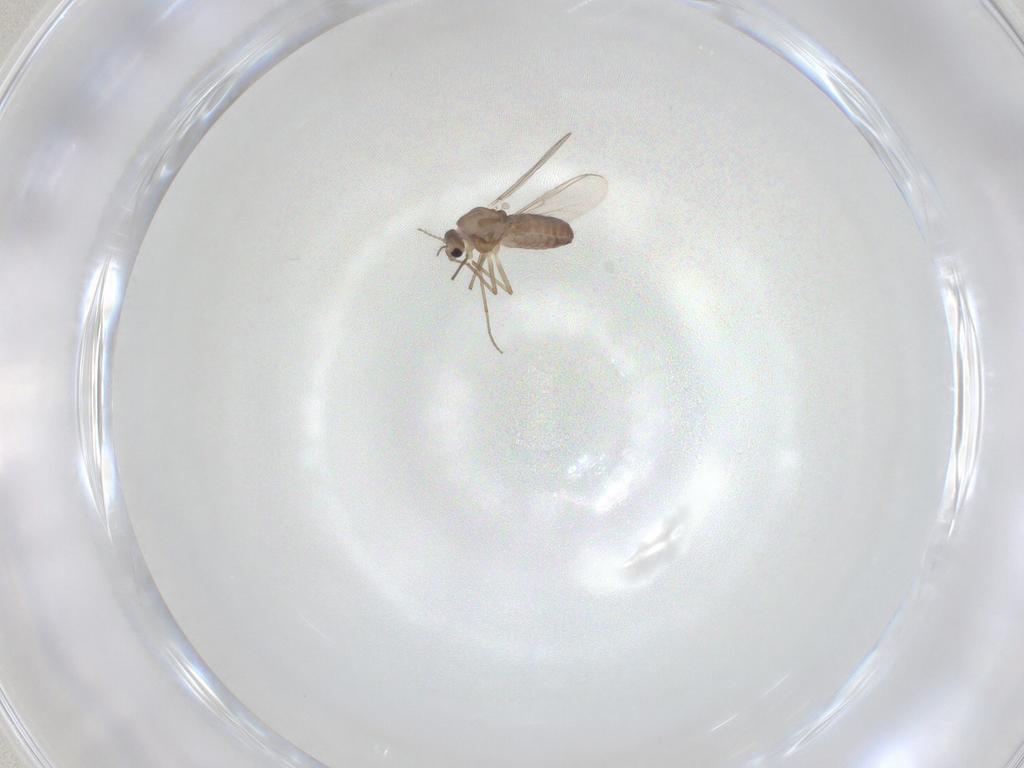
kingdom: Animalia
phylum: Arthropoda
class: Insecta
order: Diptera
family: Chironomidae
